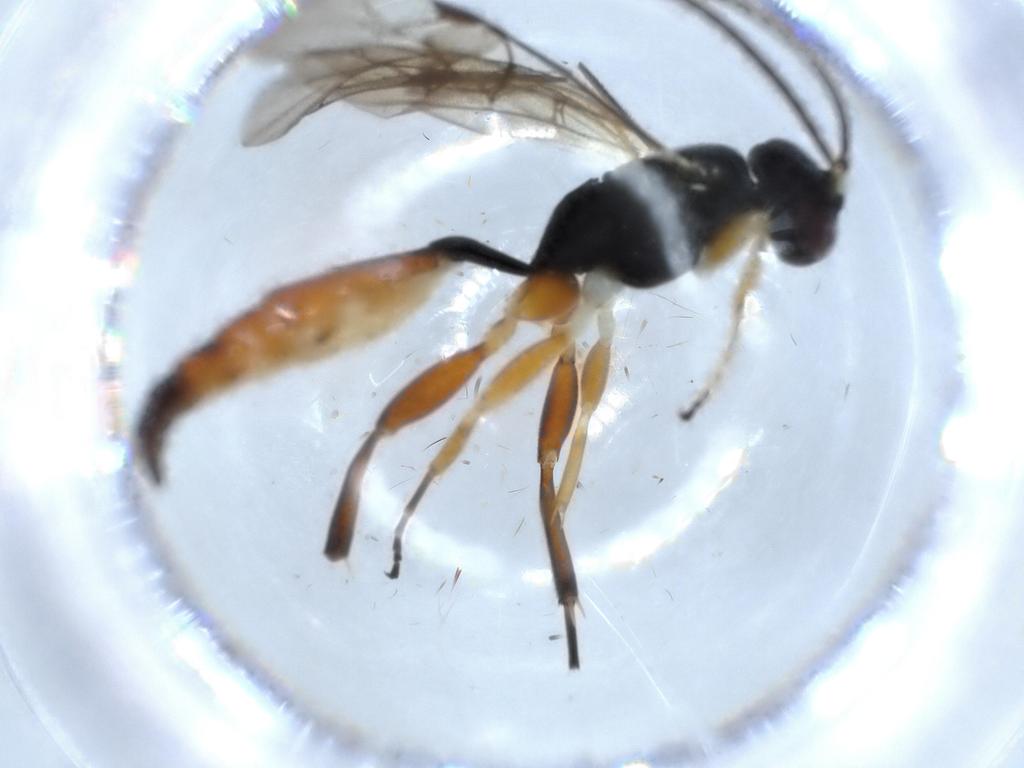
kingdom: Animalia
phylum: Arthropoda
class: Insecta
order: Hymenoptera
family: Ichneumonidae
